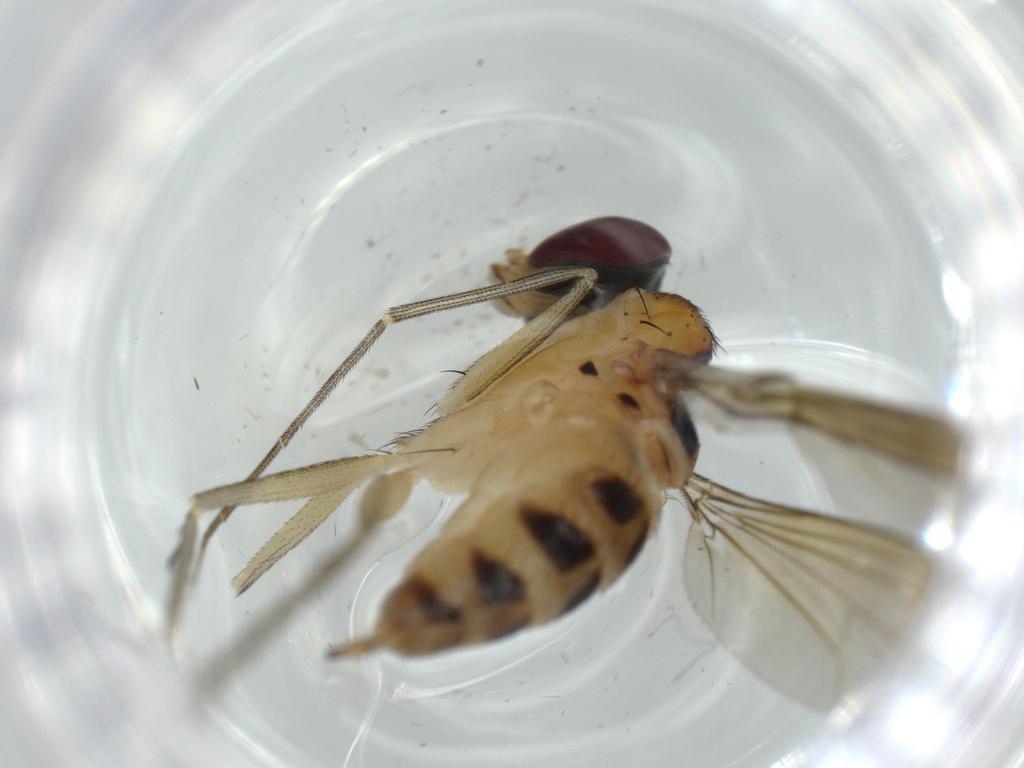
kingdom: Animalia
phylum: Arthropoda
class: Insecta
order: Diptera
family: Dolichopodidae
